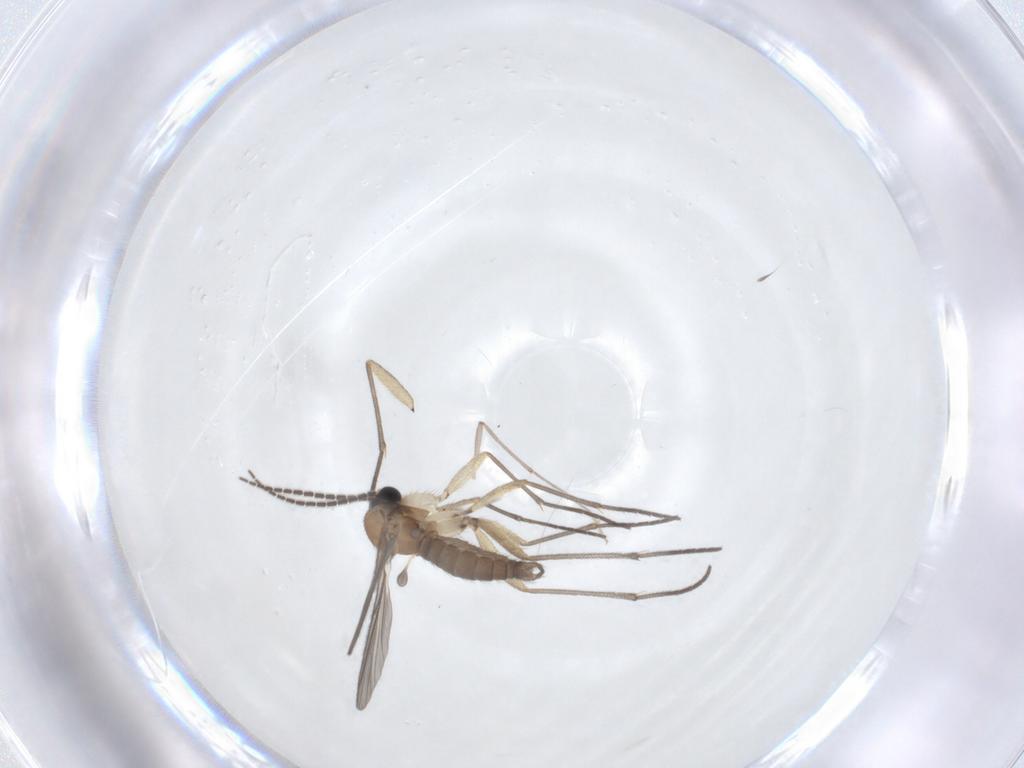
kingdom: Animalia
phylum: Arthropoda
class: Insecta
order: Diptera
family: Sciaridae
